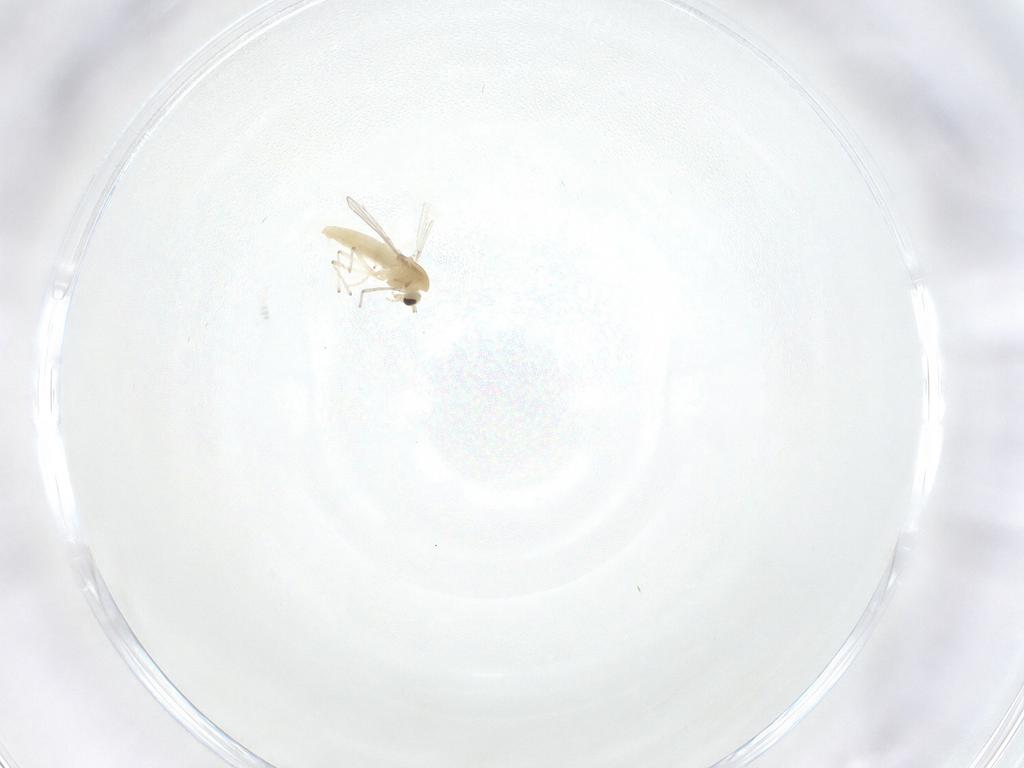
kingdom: Animalia
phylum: Arthropoda
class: Insecta
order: Diptera
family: Chironomidae
